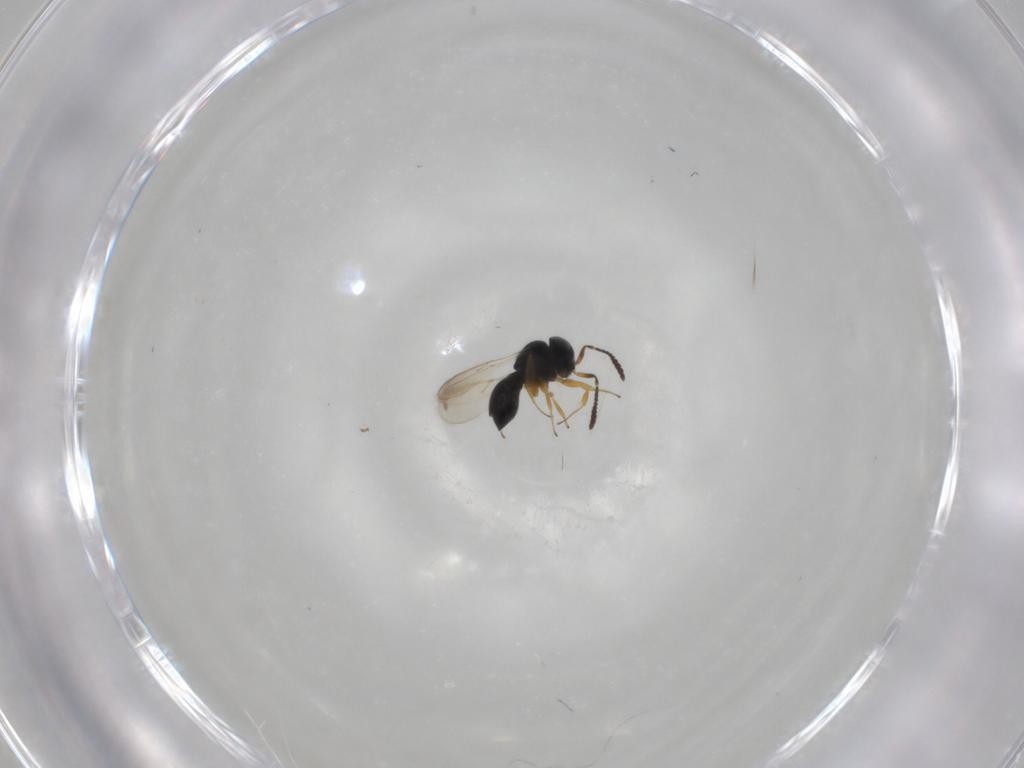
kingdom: Animalia
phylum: Arthropoda
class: Insecta
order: Hymenoptera
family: Scelionidae
